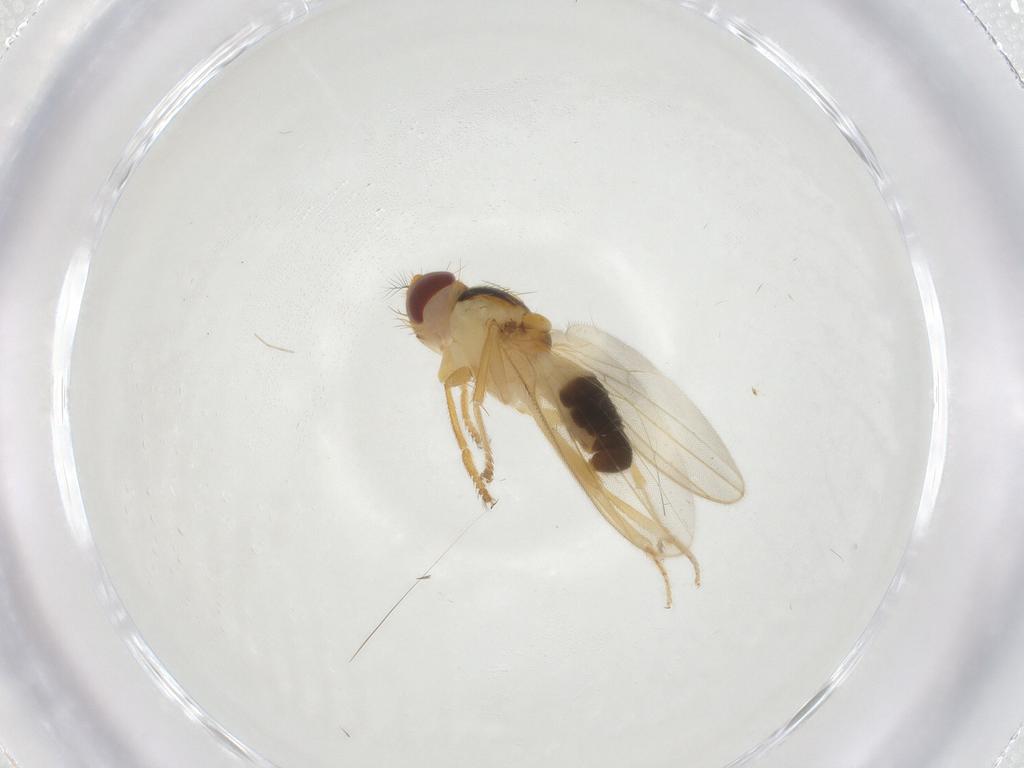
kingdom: Animalia
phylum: Arthropoda
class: Insecta
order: Diptera
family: Periscelididae
